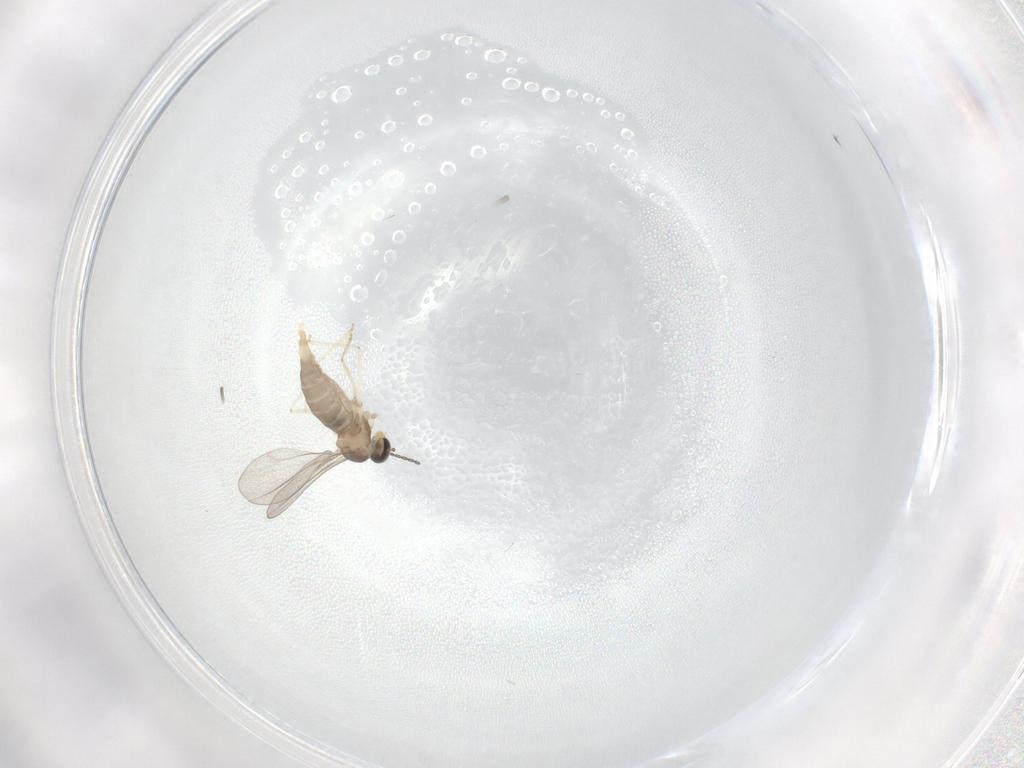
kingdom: Animalia
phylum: Arthropoda
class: Insecta
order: Diptera
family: Cecidomyiidae
